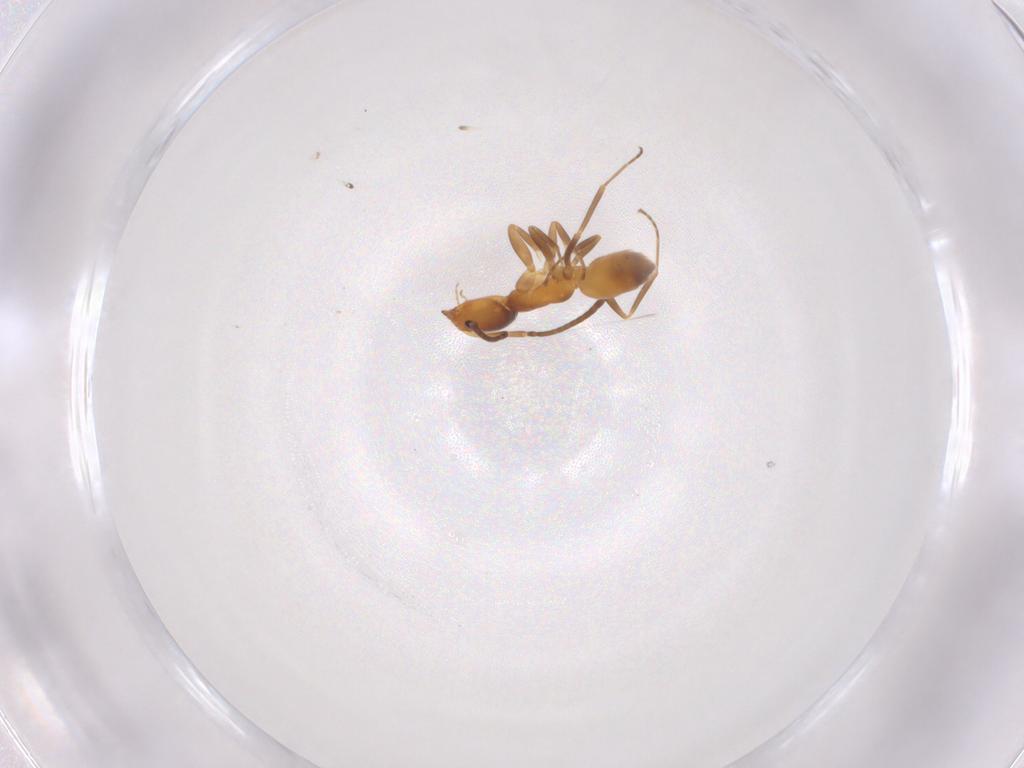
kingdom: Animalia
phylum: Arthropoda
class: Insecta
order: Hymenoptera
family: Formicidae
